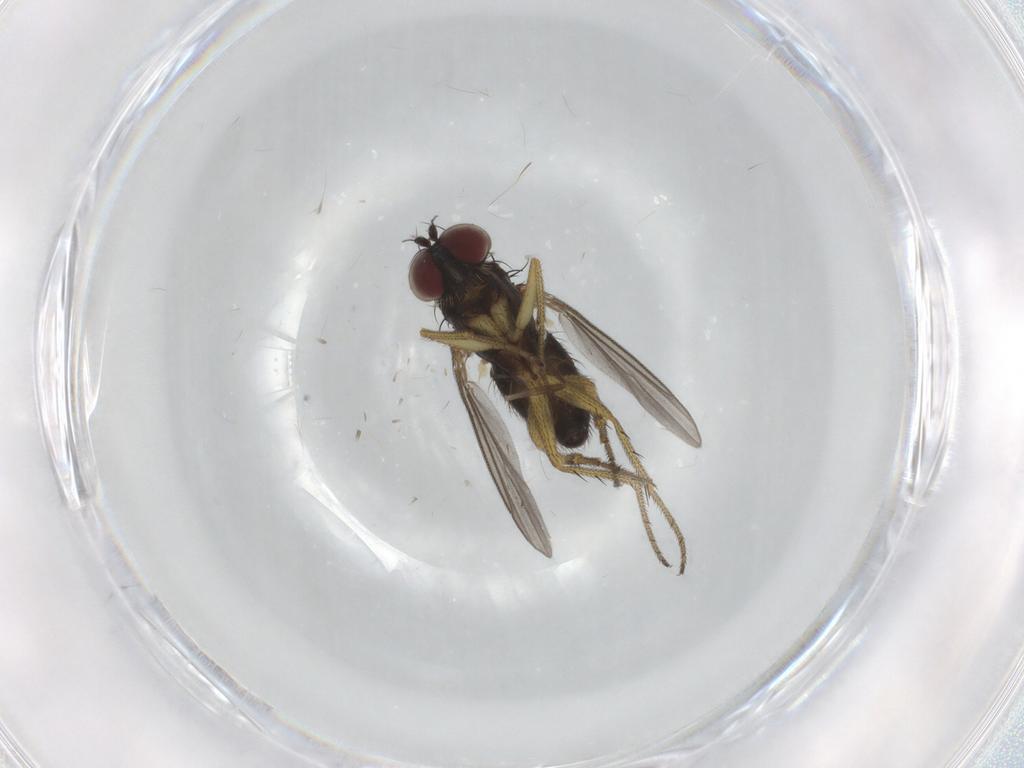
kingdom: Animalia
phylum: Arthropoda
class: Insecta
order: Diptera
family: Chironomidae
